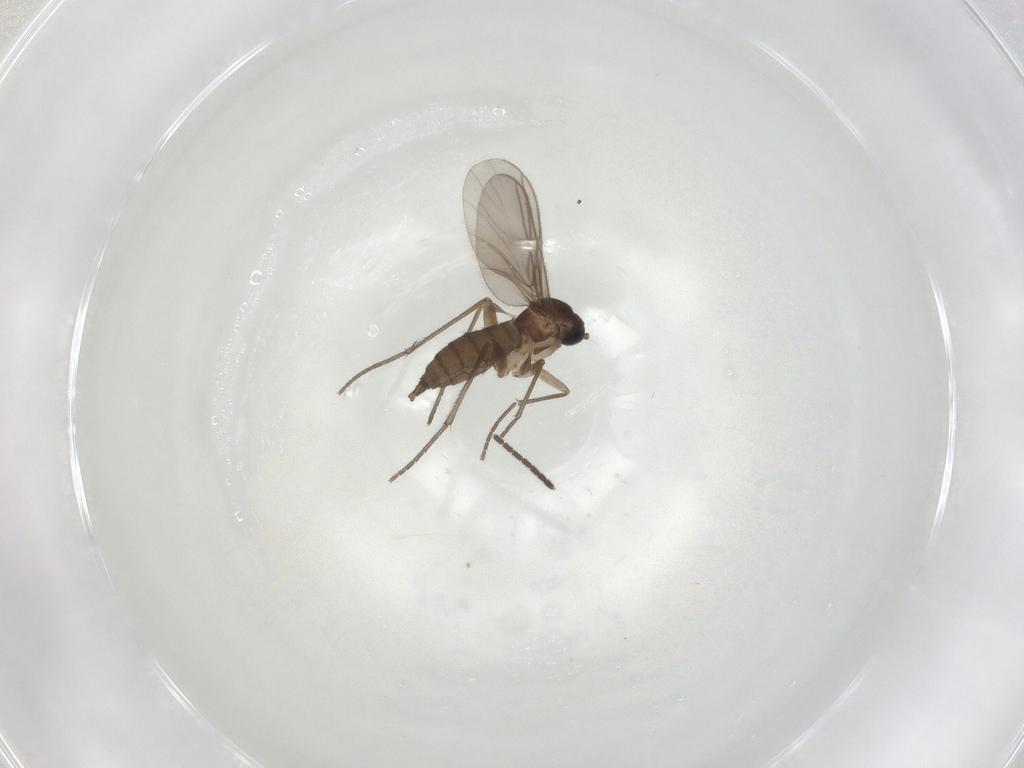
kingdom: Animalia
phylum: Arthropoda
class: Insecta
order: Diptera
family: Sciaridae
